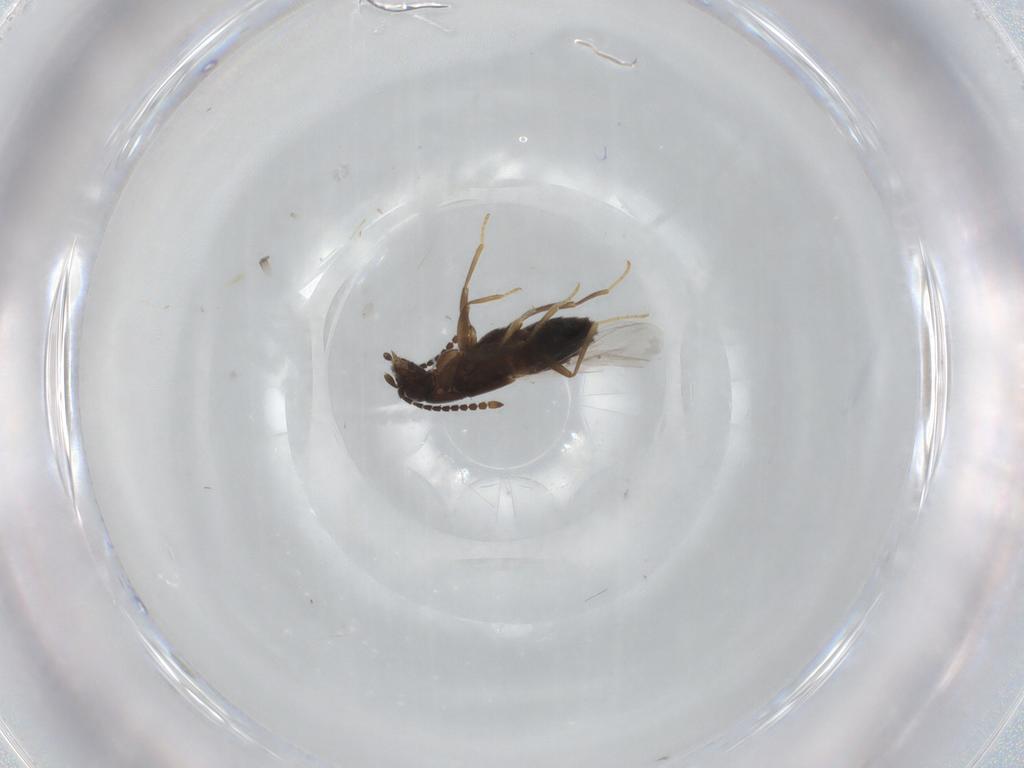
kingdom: Animalia
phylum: Arthropoda
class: Insecta
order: Coleoptera
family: Staphylinidae
